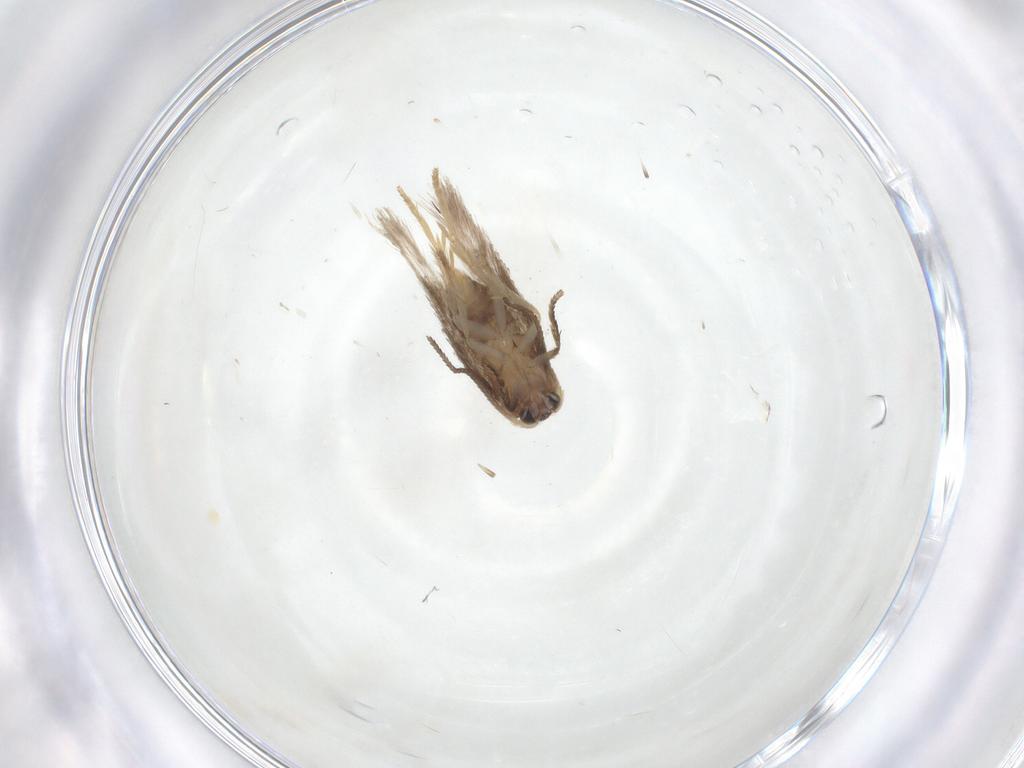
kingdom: Animalia
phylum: Arthropoda
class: Insecta
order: Lepidoptera
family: Nepticulidae
